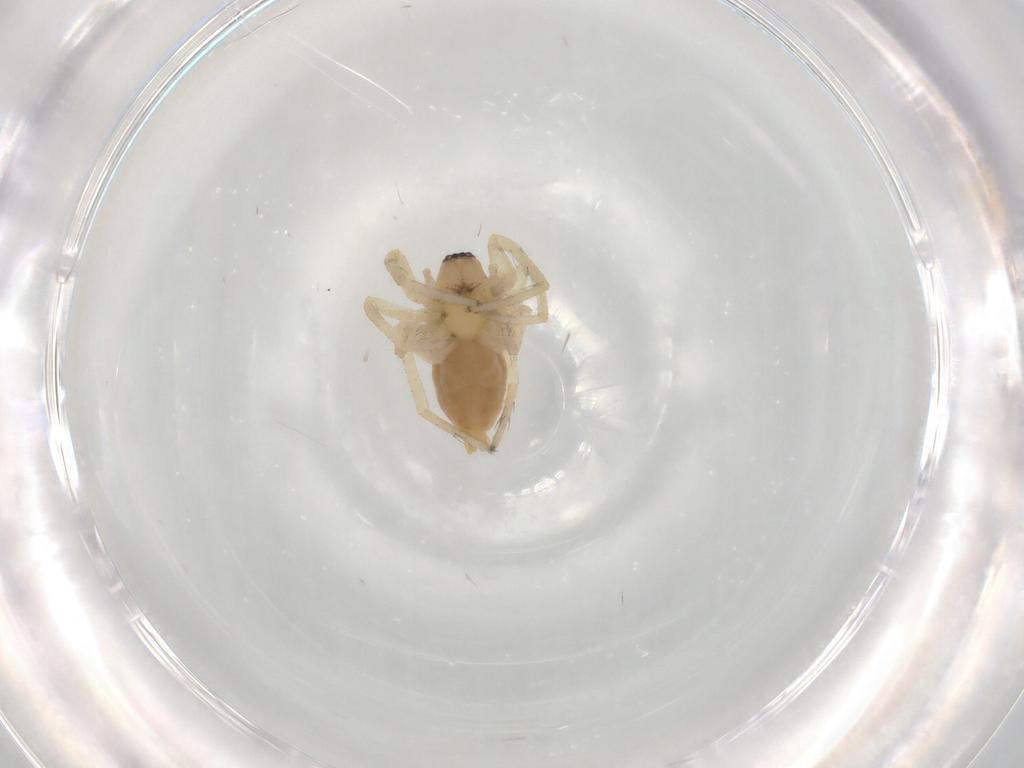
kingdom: Animalia
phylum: Arthropoda
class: Arachnida
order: Araneae
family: Anyphaenidae
